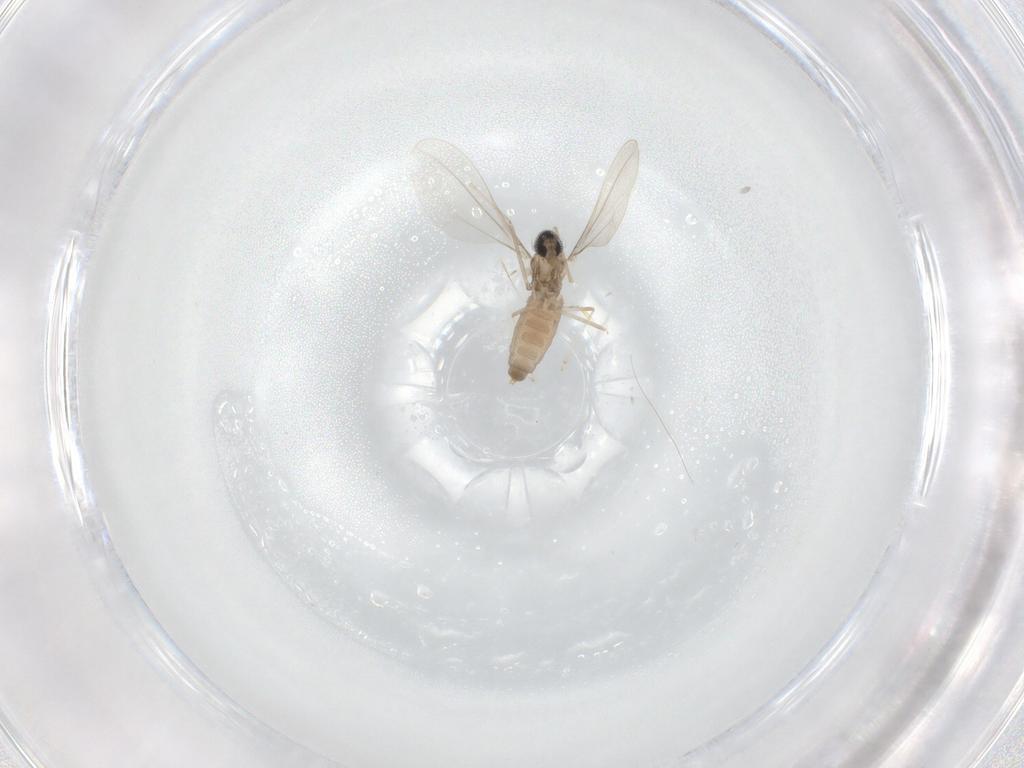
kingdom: Animalia
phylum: Arthropoda
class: Insecta
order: Diptera
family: Cecidomyiidae
